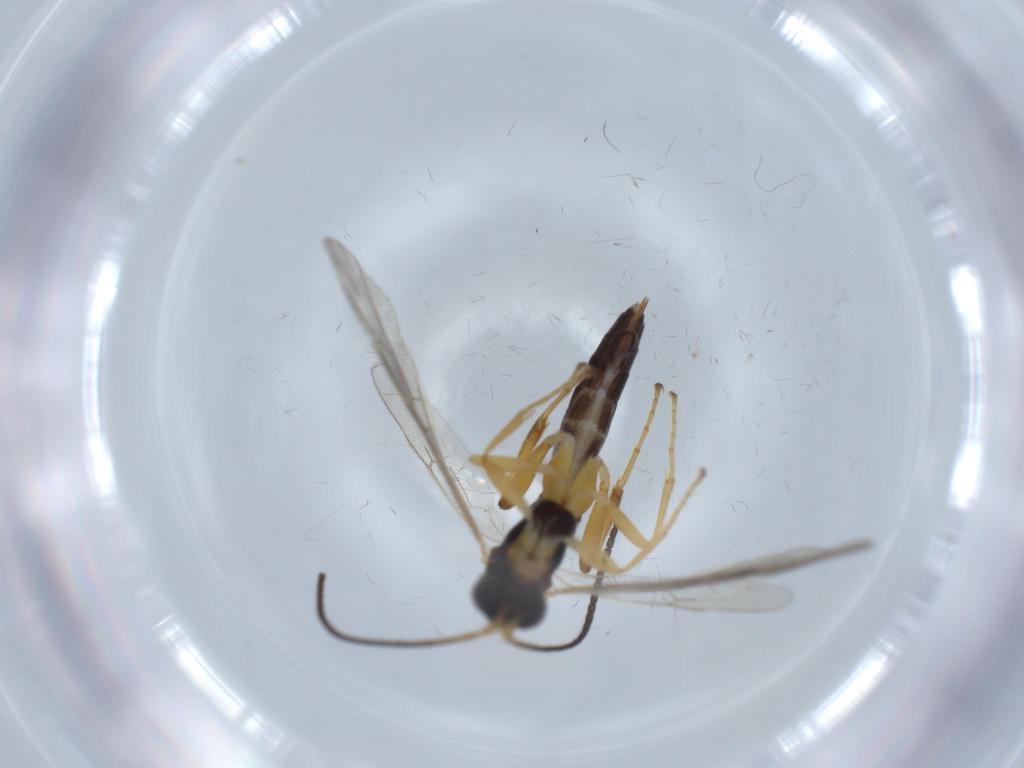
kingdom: Animalia
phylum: Arthropoda
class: Insecta
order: Hymenoptera
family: Ichneumonidae
